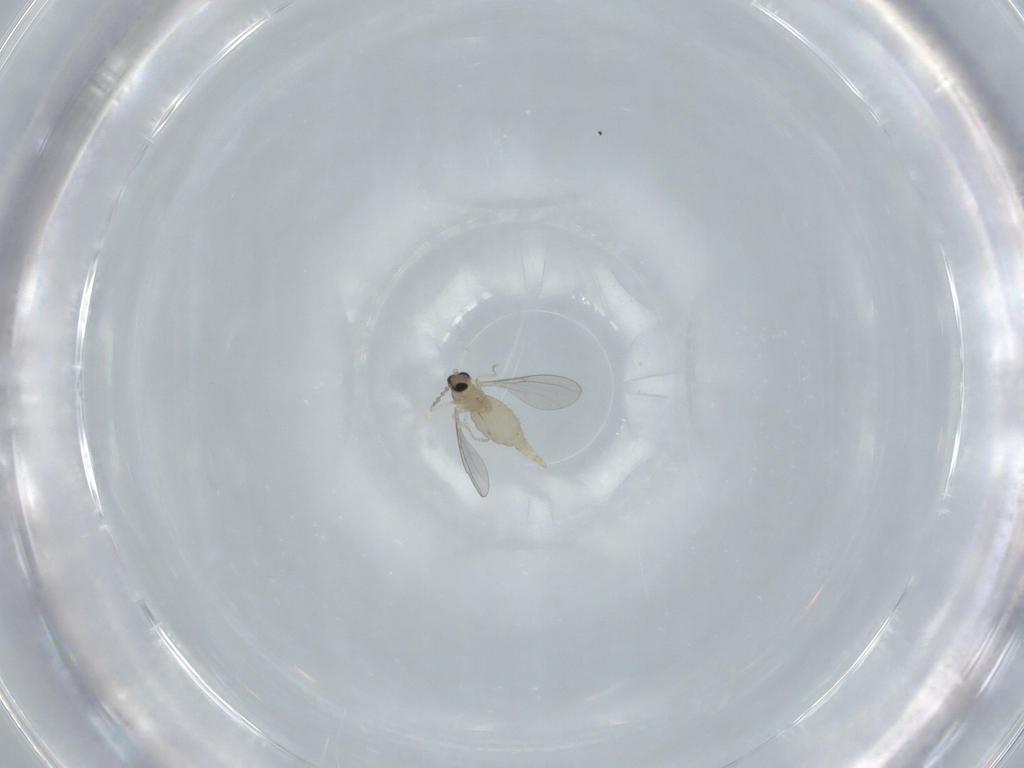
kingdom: Animalia
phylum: Arthropoda
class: Insecta
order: Diptera
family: Cecidomyiidae
